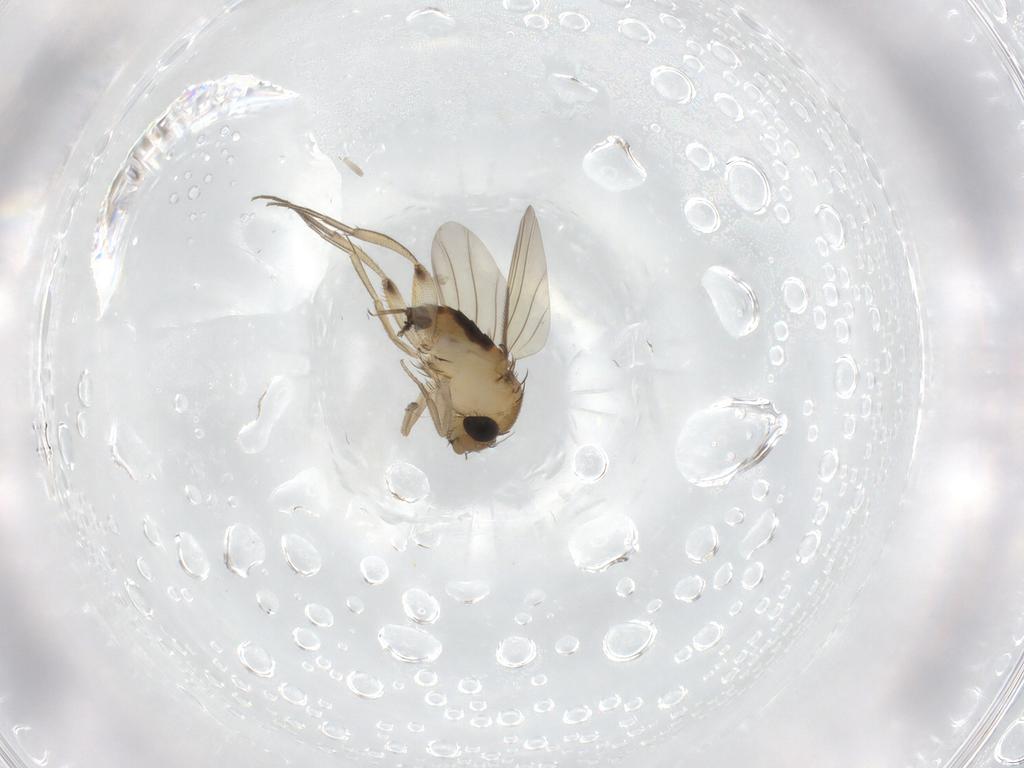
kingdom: Animalia
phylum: Arthropoda
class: Insecta
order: Diptera
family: Phoridae
